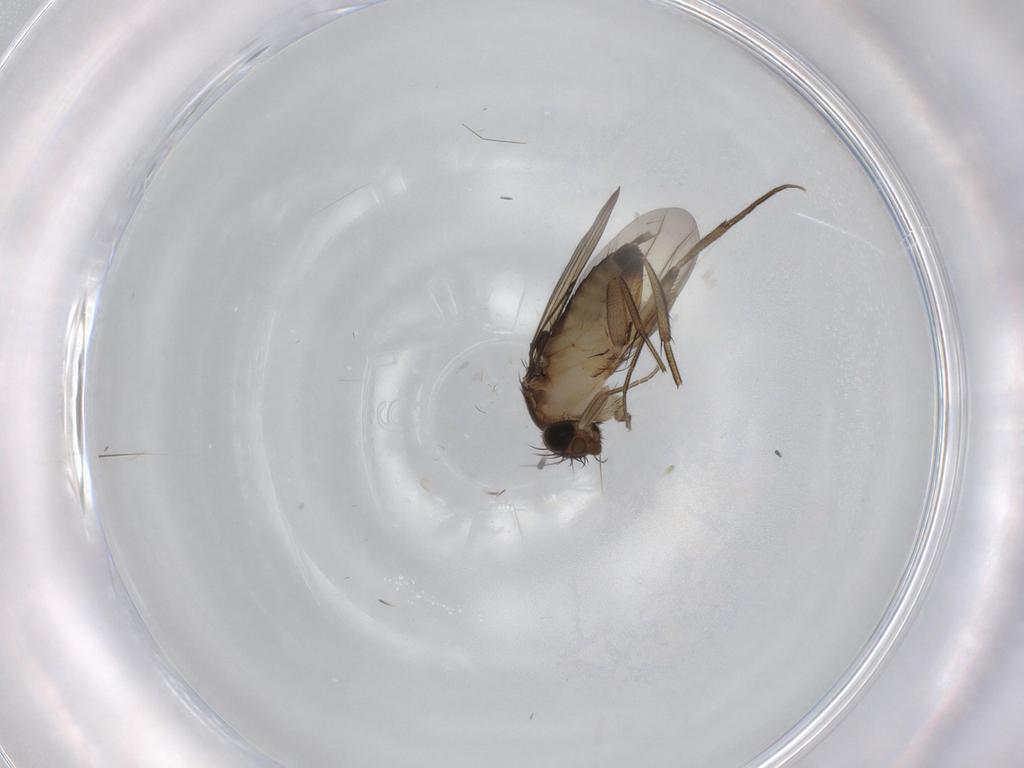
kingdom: Animalia
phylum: Arthropoda
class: Insecta
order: Diptera
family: Cecidomyiidae
